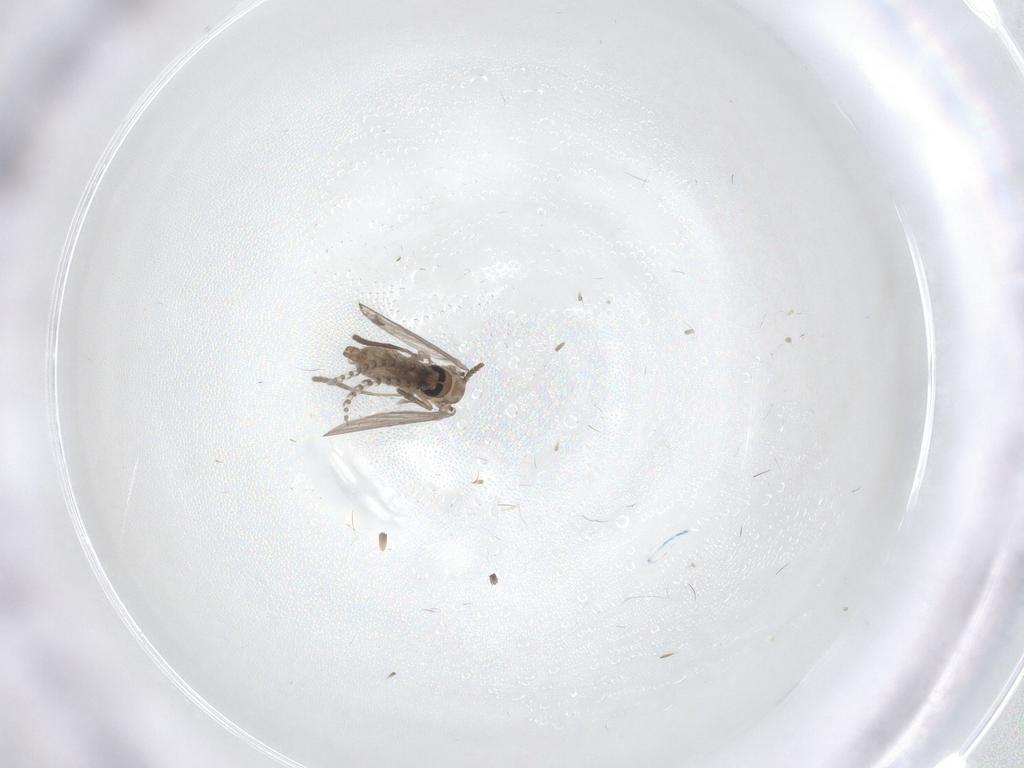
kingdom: Animalia
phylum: Arthropoda
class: Insecta
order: Diptera
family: Psychodidae
